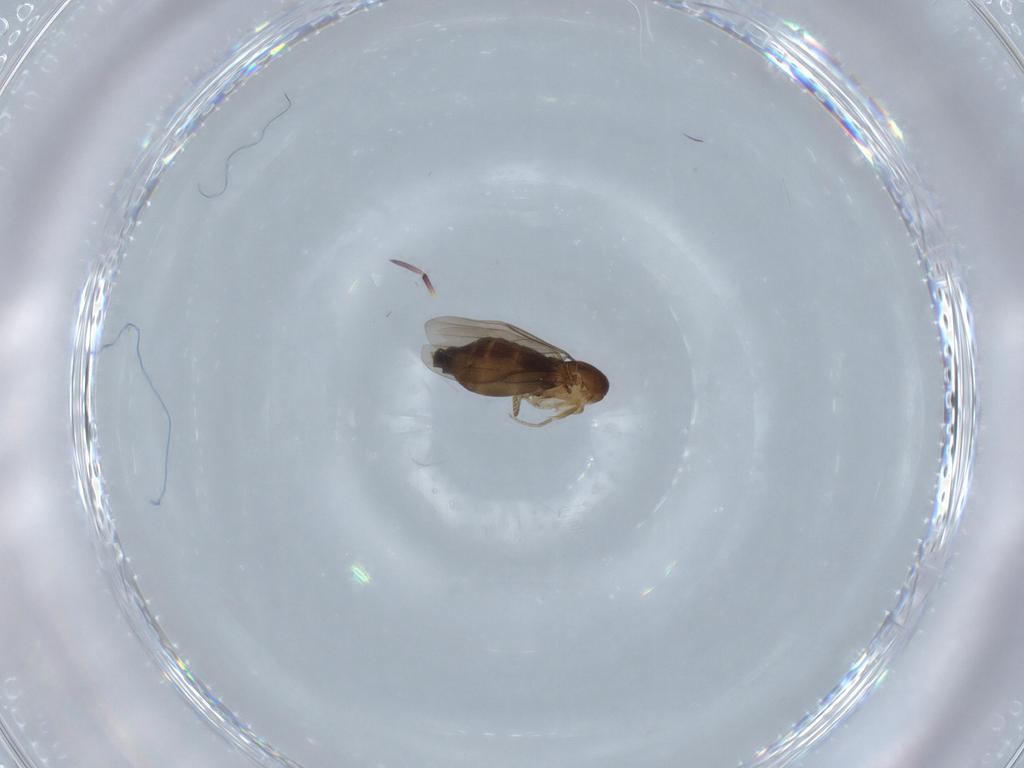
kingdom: Animalia
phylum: Arthropoda
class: Insecta
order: Diptera
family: Phoridae
